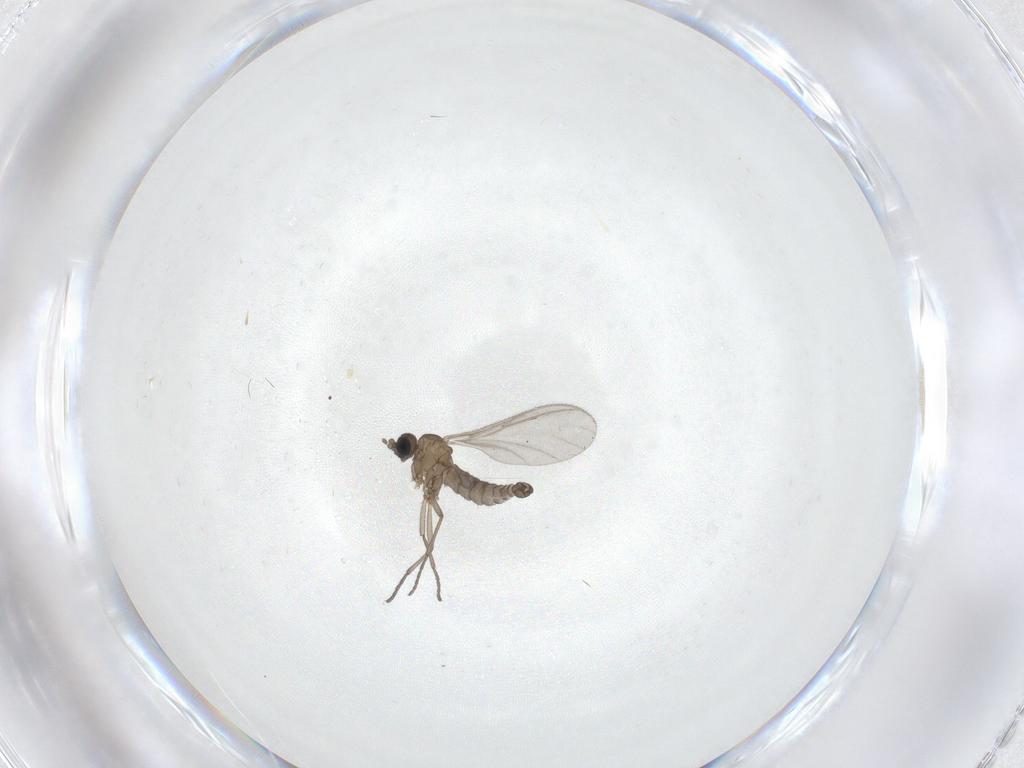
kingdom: Animalia
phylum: Arthropoda
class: Insecta
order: Diptera
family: Sciaridae
